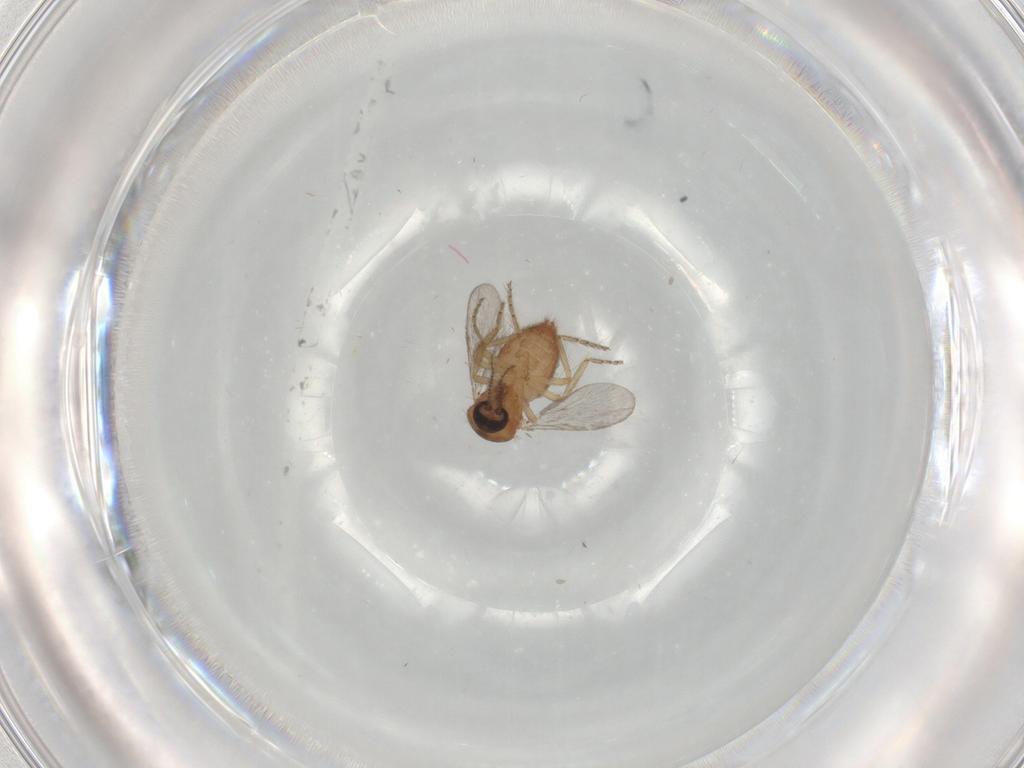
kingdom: Animalia
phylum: Arthropoda
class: Insecta
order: Diptera
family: Ceratopogonidae
